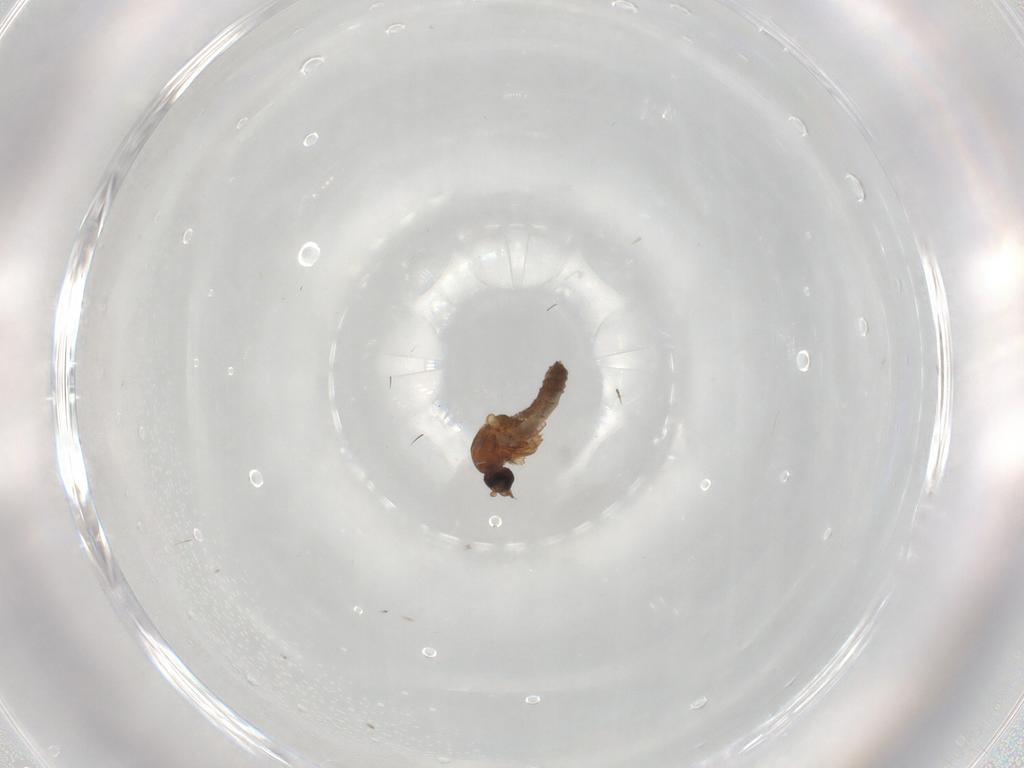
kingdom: Animalia
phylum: Arthropoda
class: Insecta
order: Diptera
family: Ceratopogonidae
